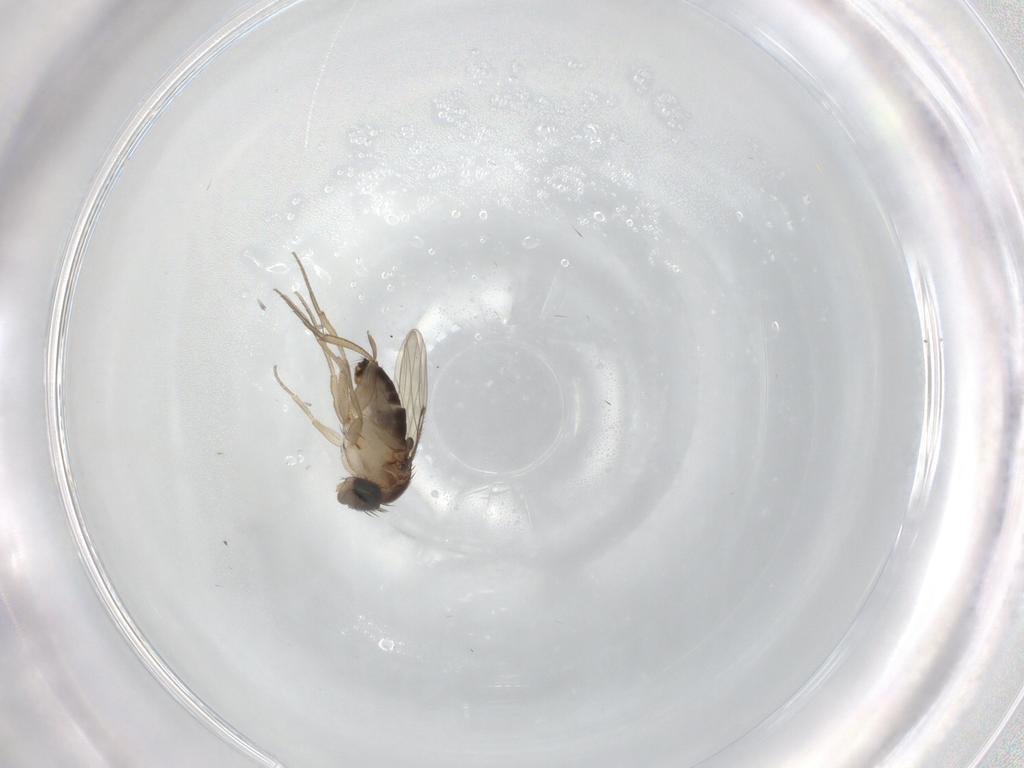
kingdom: Animalia
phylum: Arthropoda
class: Insecta
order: Diptera
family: Phoridae
